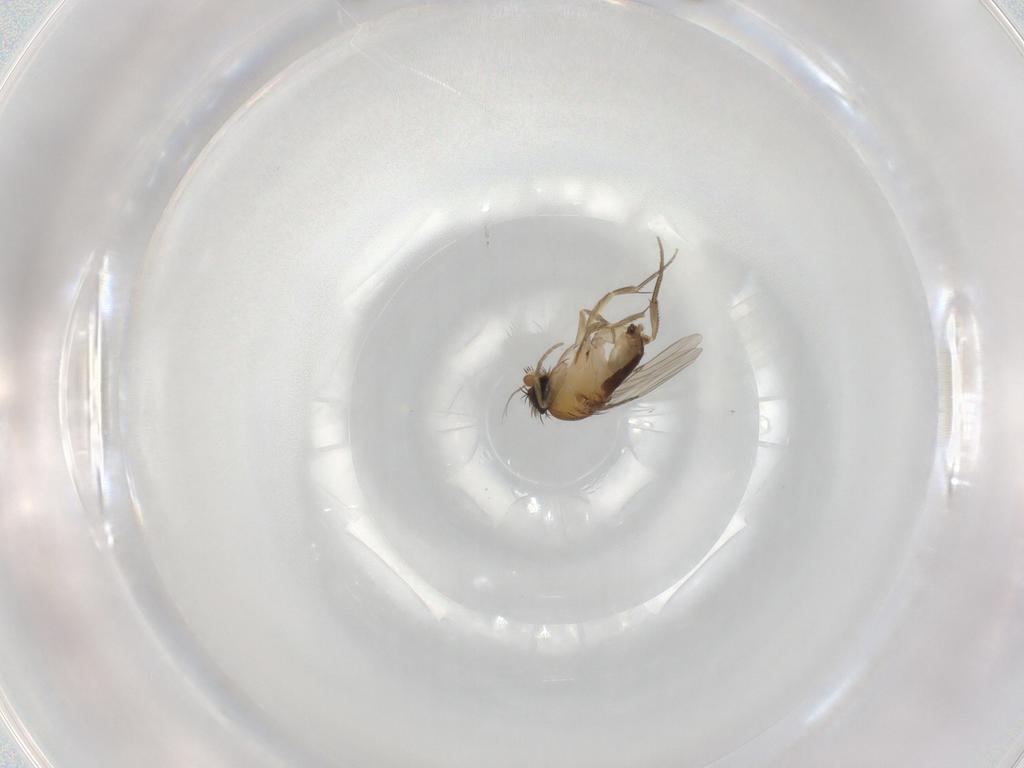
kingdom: Animalia
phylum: Arthropoda
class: Insecta
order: Diptera
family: Phoridae
